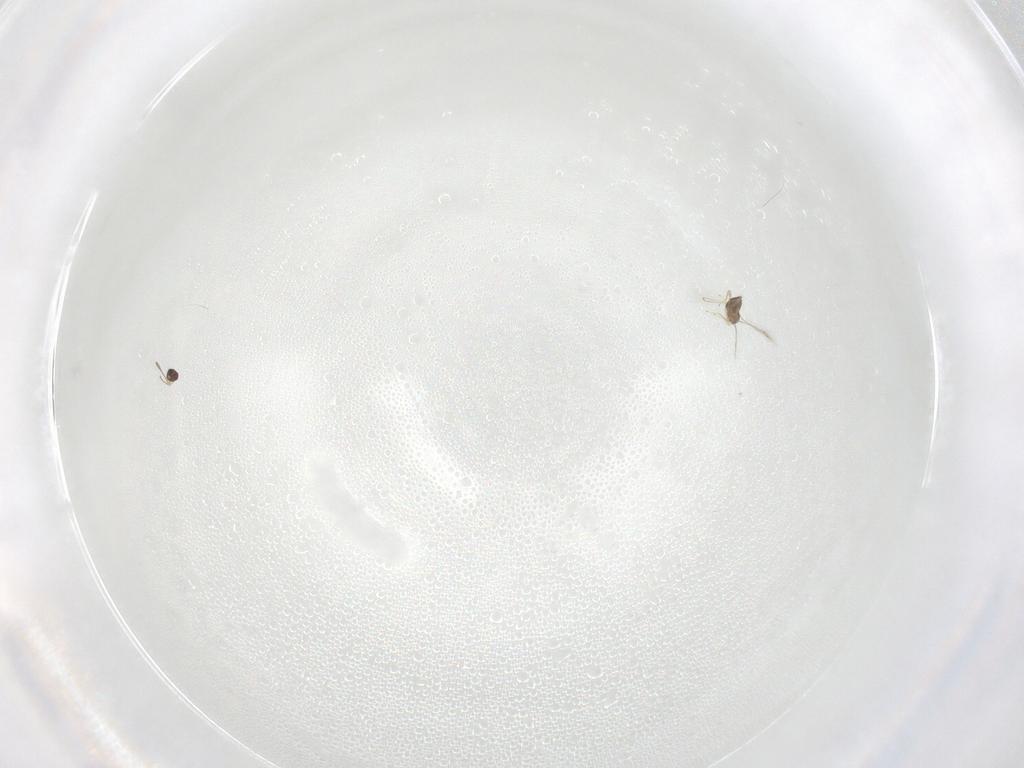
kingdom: Animalia
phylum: Arthropoda
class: Insecta
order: Hymenoptera
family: Mymaridae
